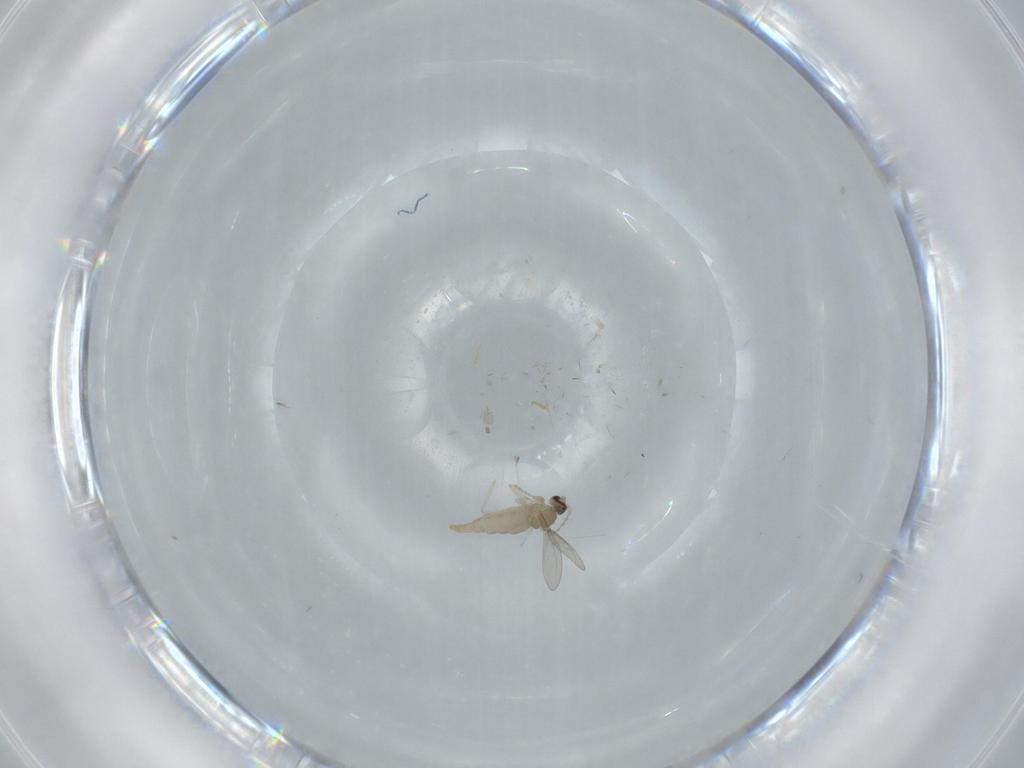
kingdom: Animalia
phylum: Arthropoda
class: Insecta
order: Diptera
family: Cecidomyiidae
